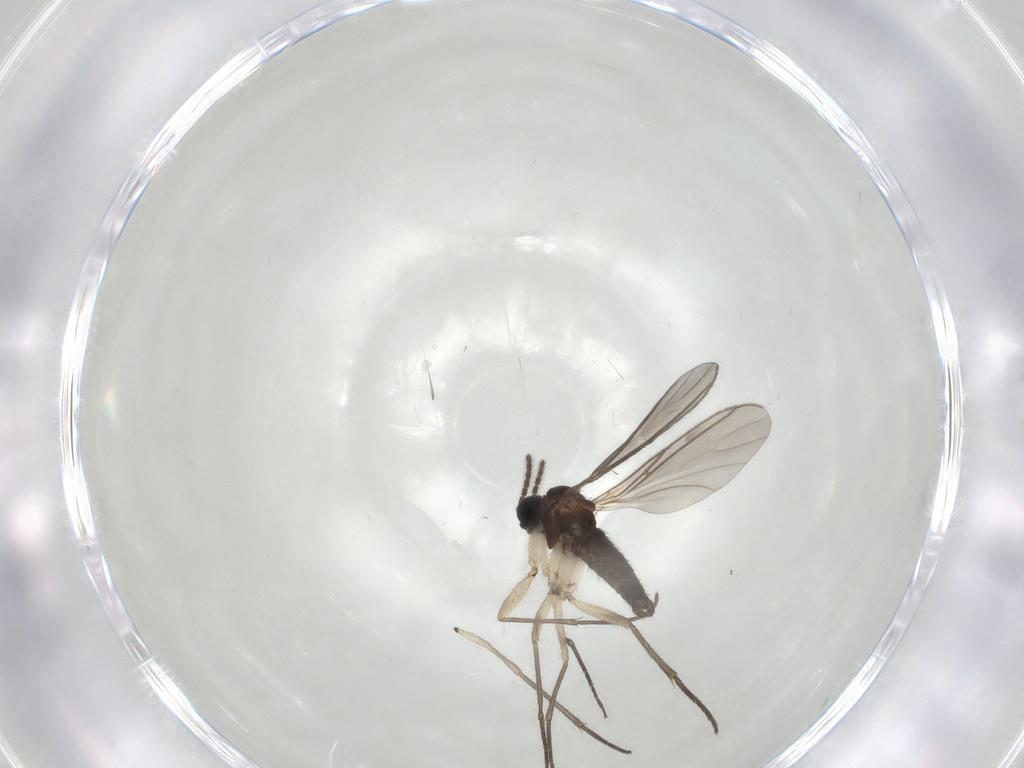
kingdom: Animalia
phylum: Arthropoda
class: Insecta
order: Diptera
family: Sciaridae
